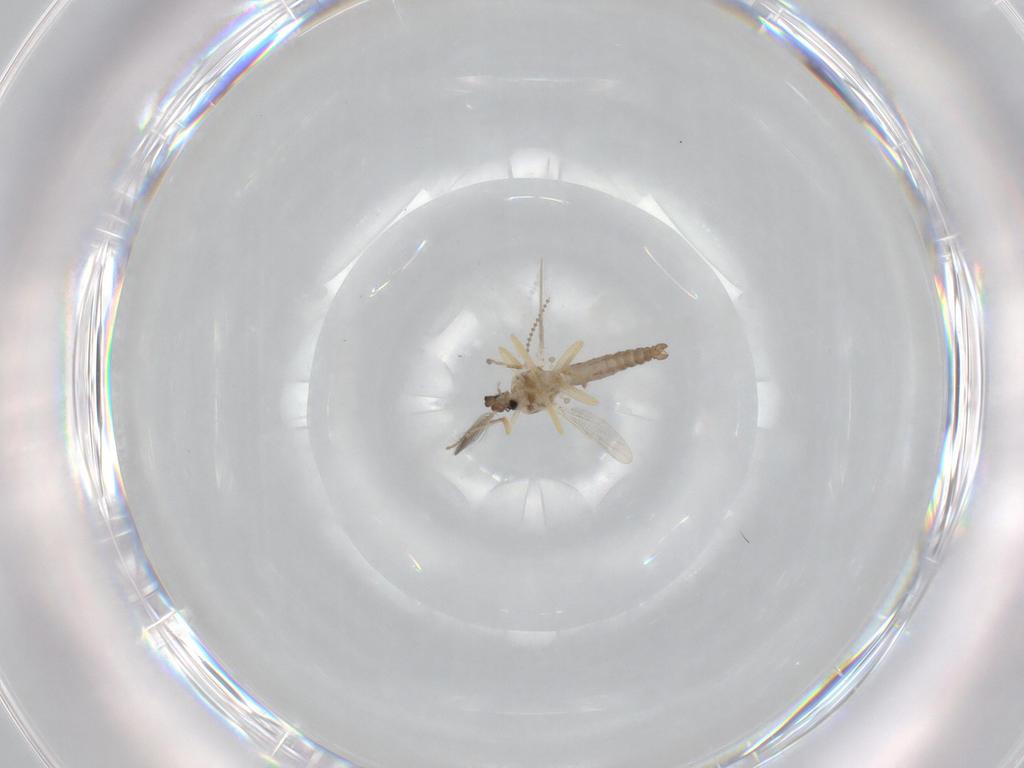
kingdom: Animalia
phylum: Arthropoda
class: Insecta
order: Diptera
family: Ceratopogonidae
